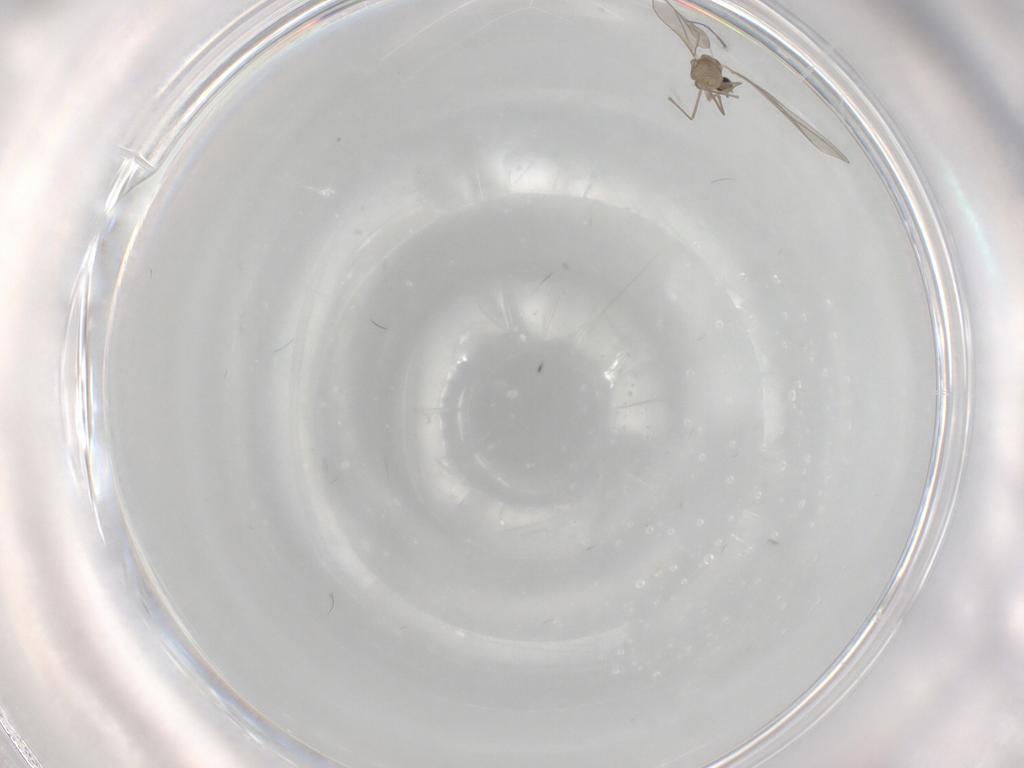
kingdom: Animalia
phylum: Arthropoda
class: Insecta
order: Diptera
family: Cecidomyiidae
